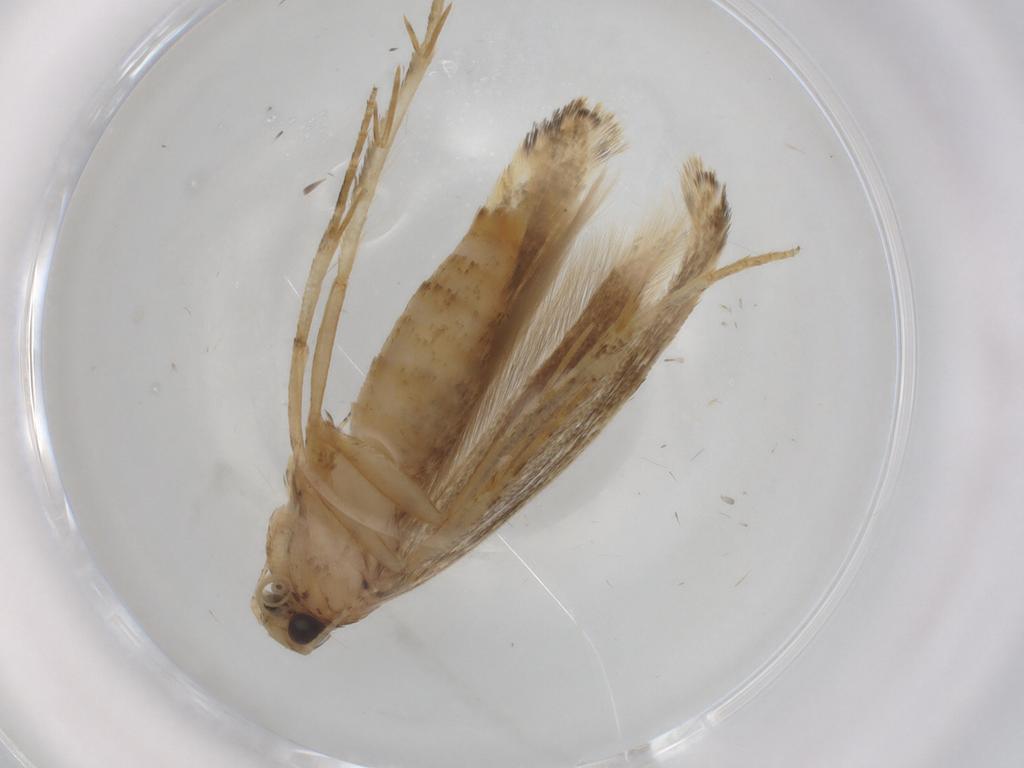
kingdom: Animalia
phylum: Arthropoda
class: Insecta
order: Lepidoptera
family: Gelechiidae
